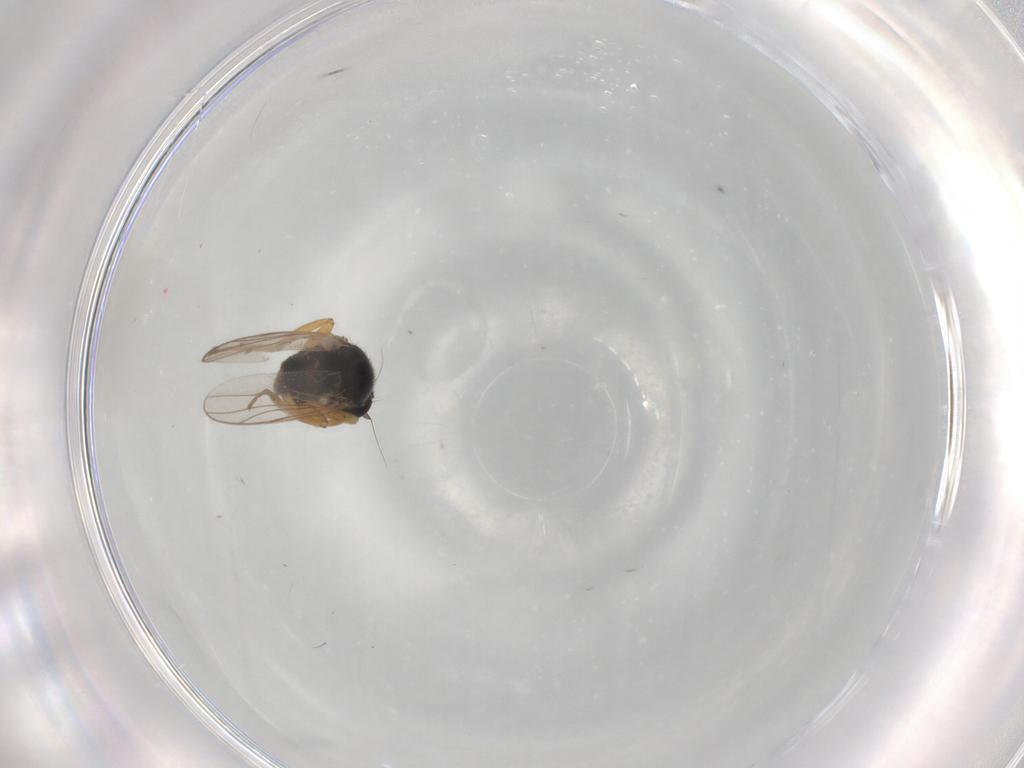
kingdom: Animalia
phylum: Arthropoda
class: Insecta
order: Diptera
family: Hybotidae
